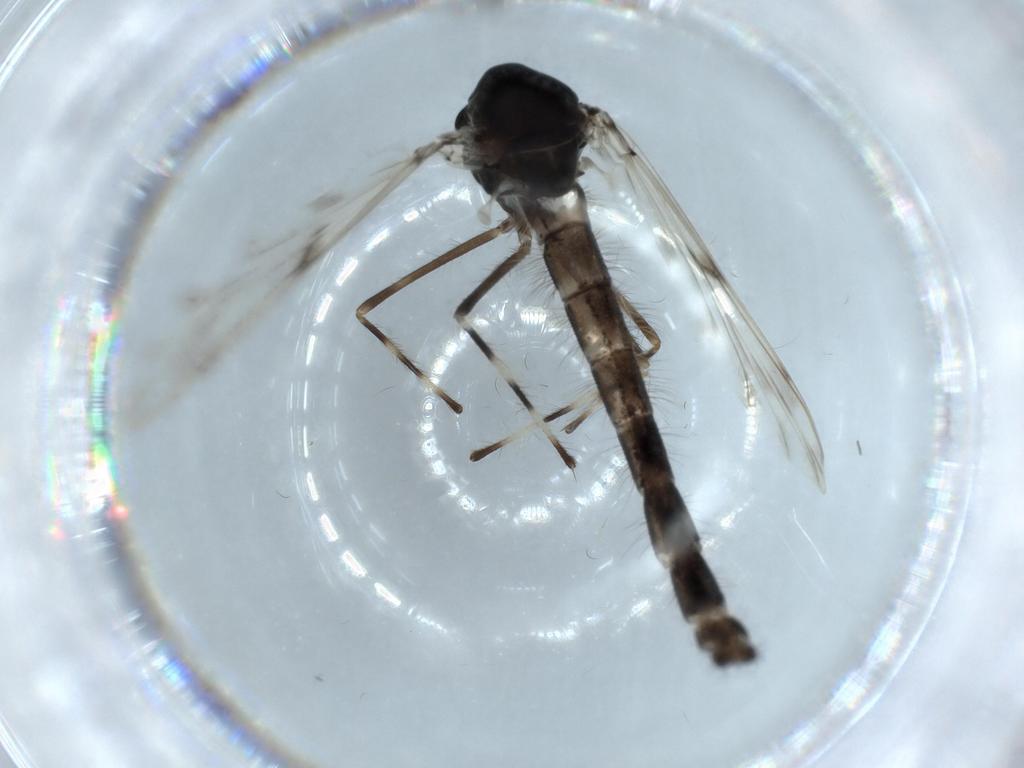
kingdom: Animalia
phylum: Arthropoda
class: Insecta
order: Diptera
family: Chironomidae
